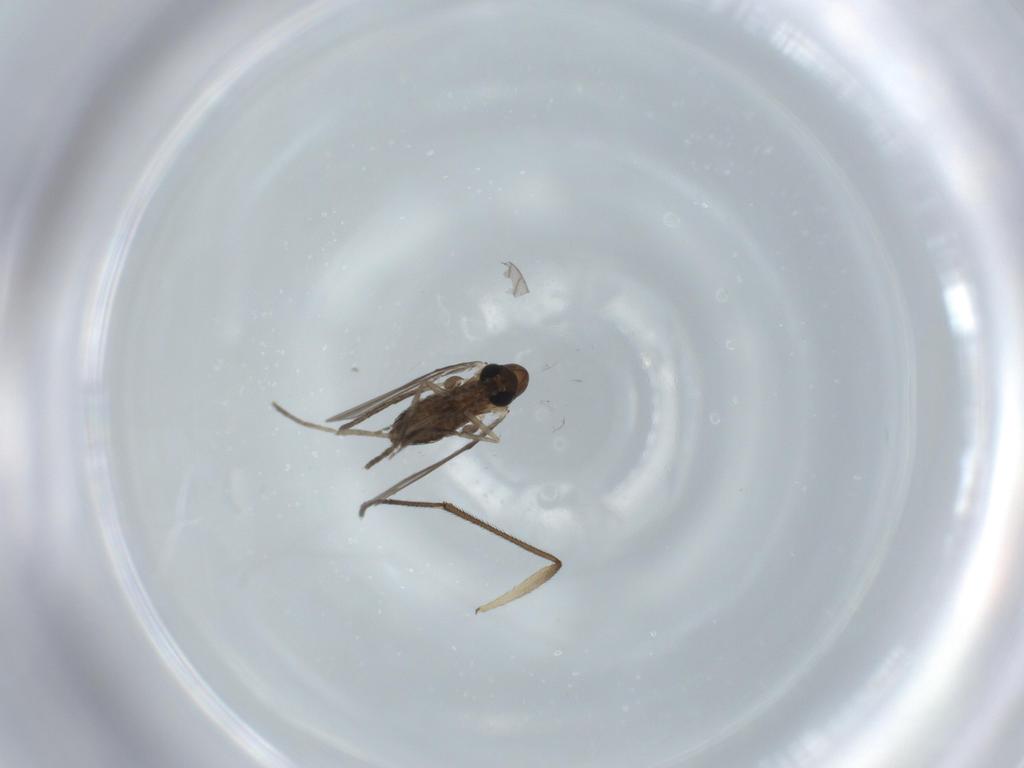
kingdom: Animalia
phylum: Arthropoda
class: Insecta
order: Diptera
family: Psychodidae
